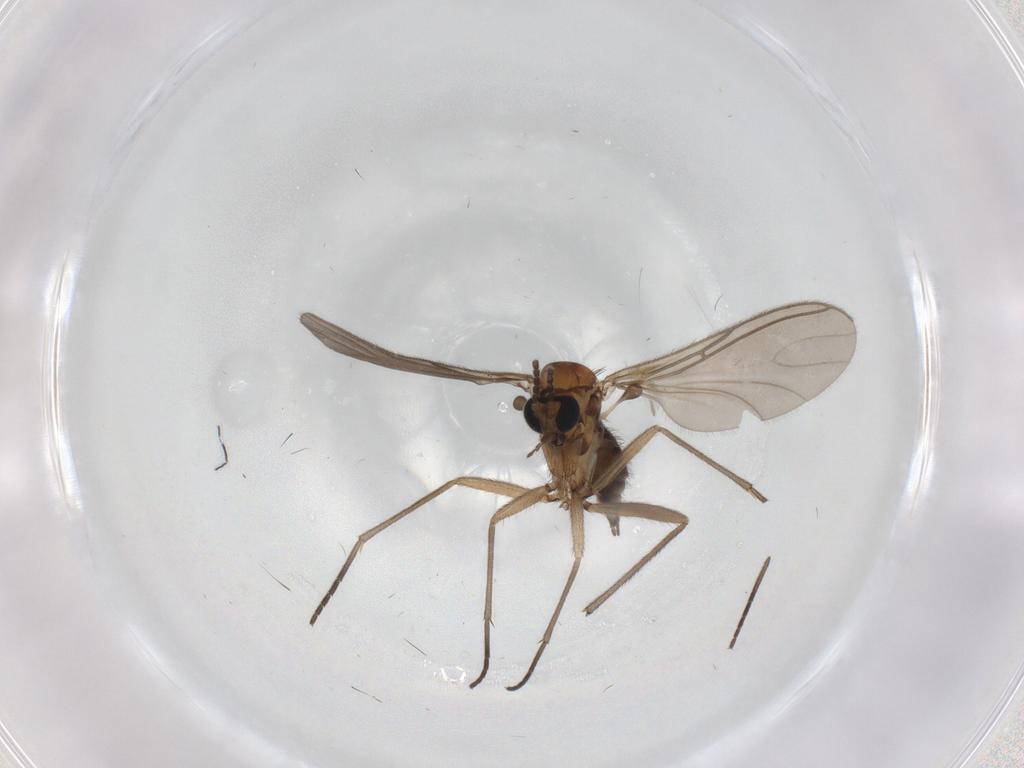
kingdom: Animalia
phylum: Arthropoda
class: Insecta
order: Diptera
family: Sciaridae
